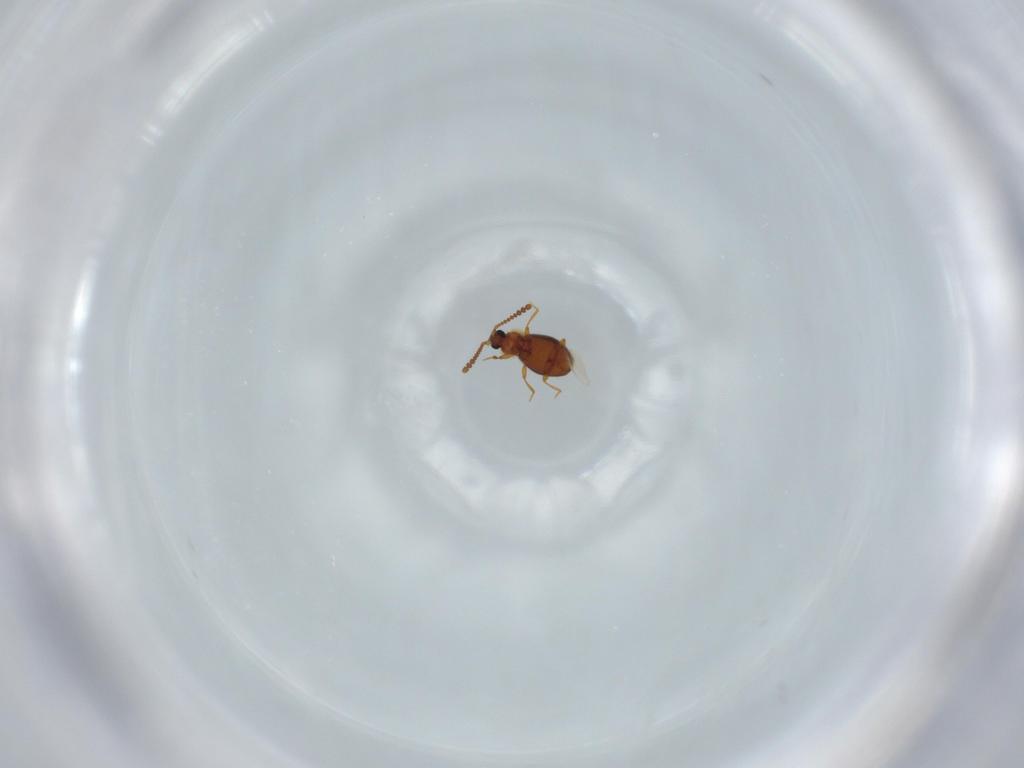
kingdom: Animalia
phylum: Arthropoda
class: Insecta
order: Coleoptera
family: Staphylinidae
